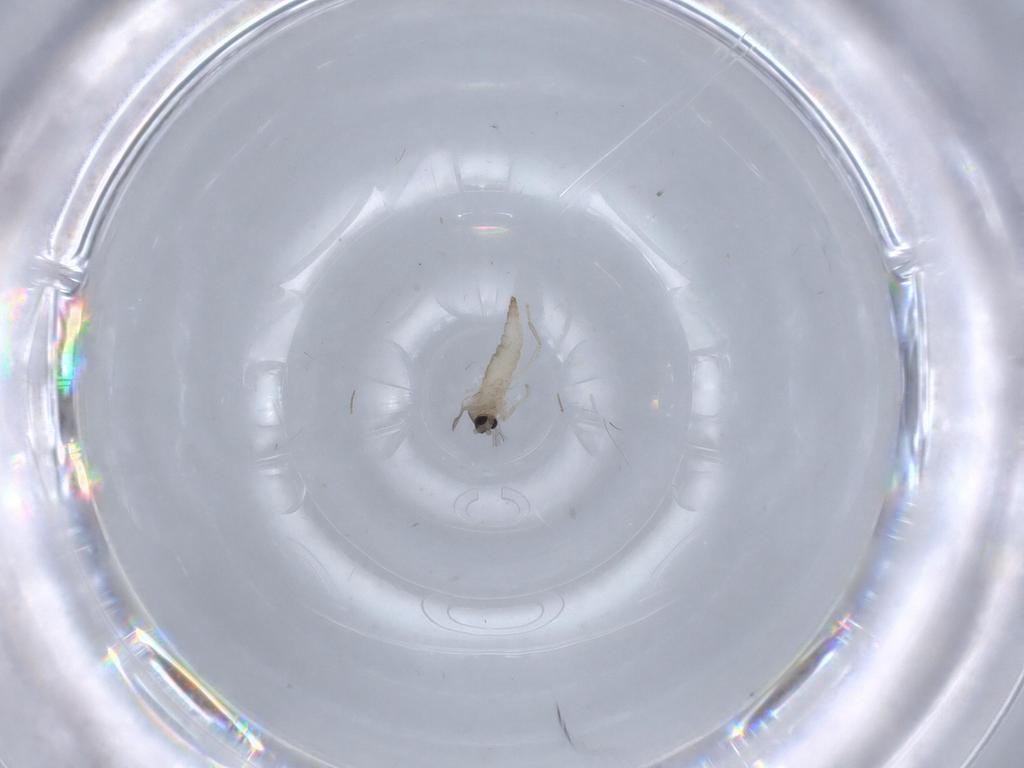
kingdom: Animalia
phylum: Arthropoda
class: Insecta
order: Diptera
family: Cecidomyiidae
